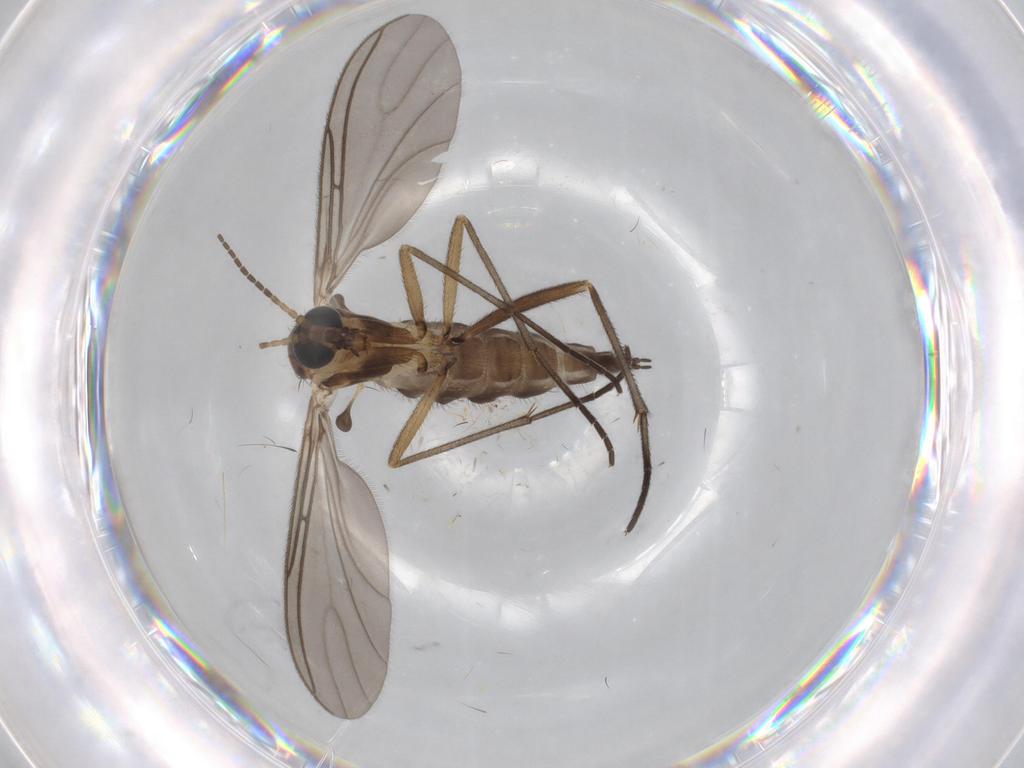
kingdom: Animalia
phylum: Arthropoda
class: Insecta
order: Diptera
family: Sciaridae
